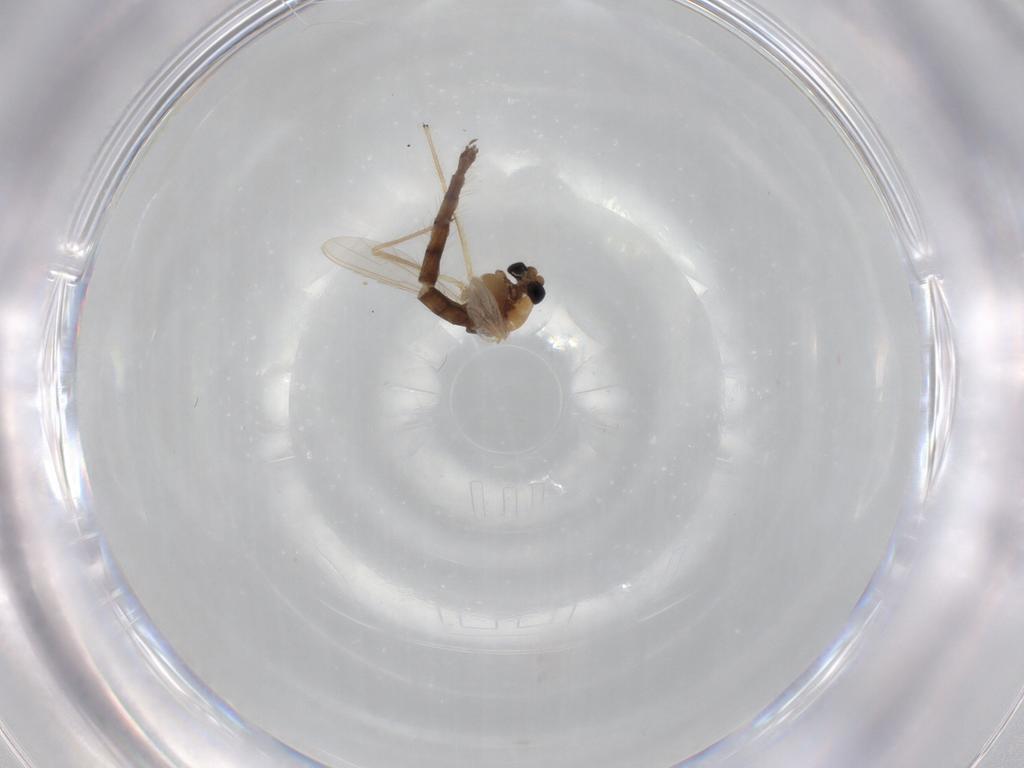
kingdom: Animalia
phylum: Arthropoda
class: Insecta
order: Diptera
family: Chironomidae
